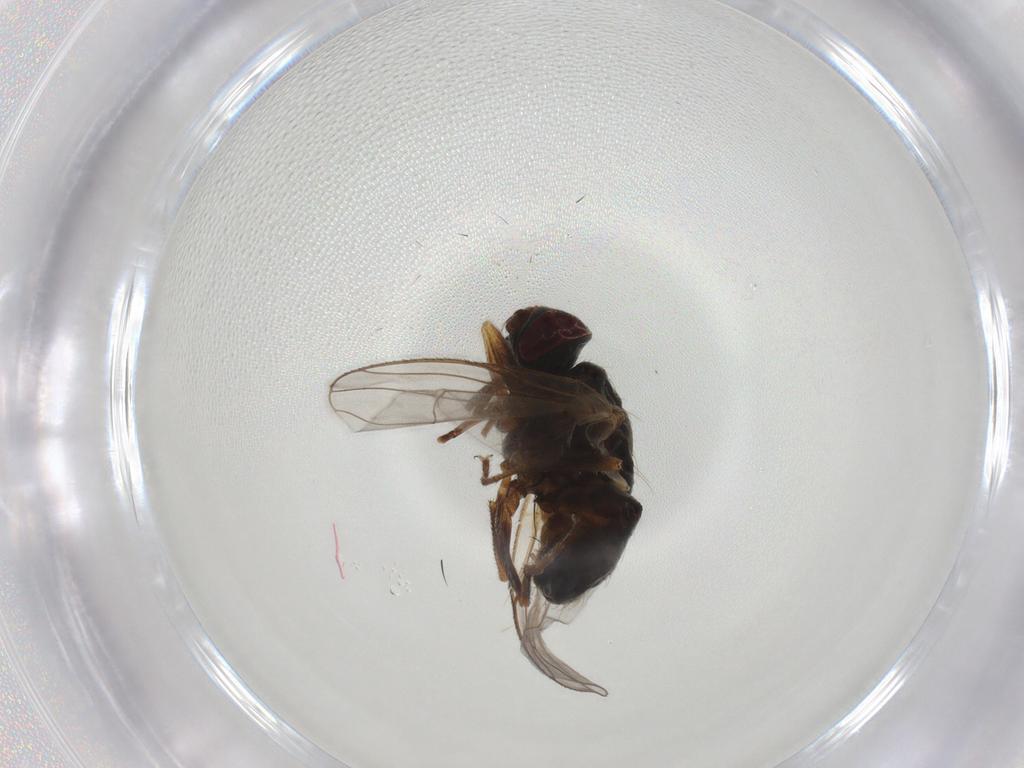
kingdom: Animalia
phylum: Arthropoda
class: Insecta
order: Diptera
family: Muscidae
